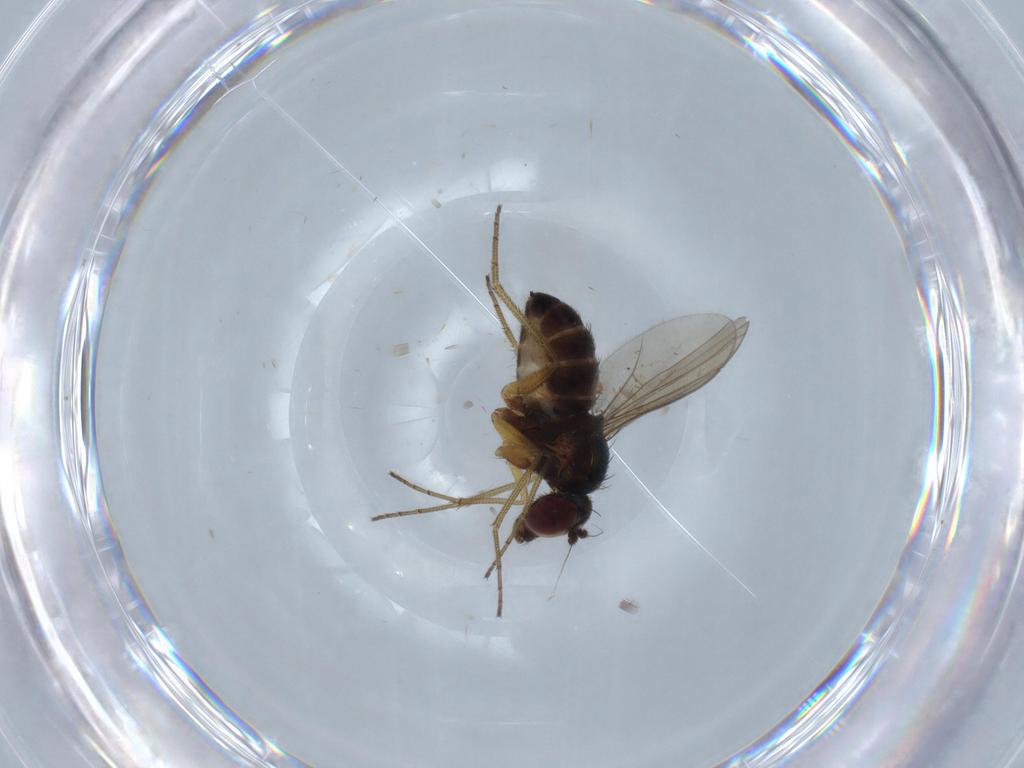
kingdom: Animalia
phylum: Arthropoda
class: Insecta
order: Diptera
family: Dolichopodidae
